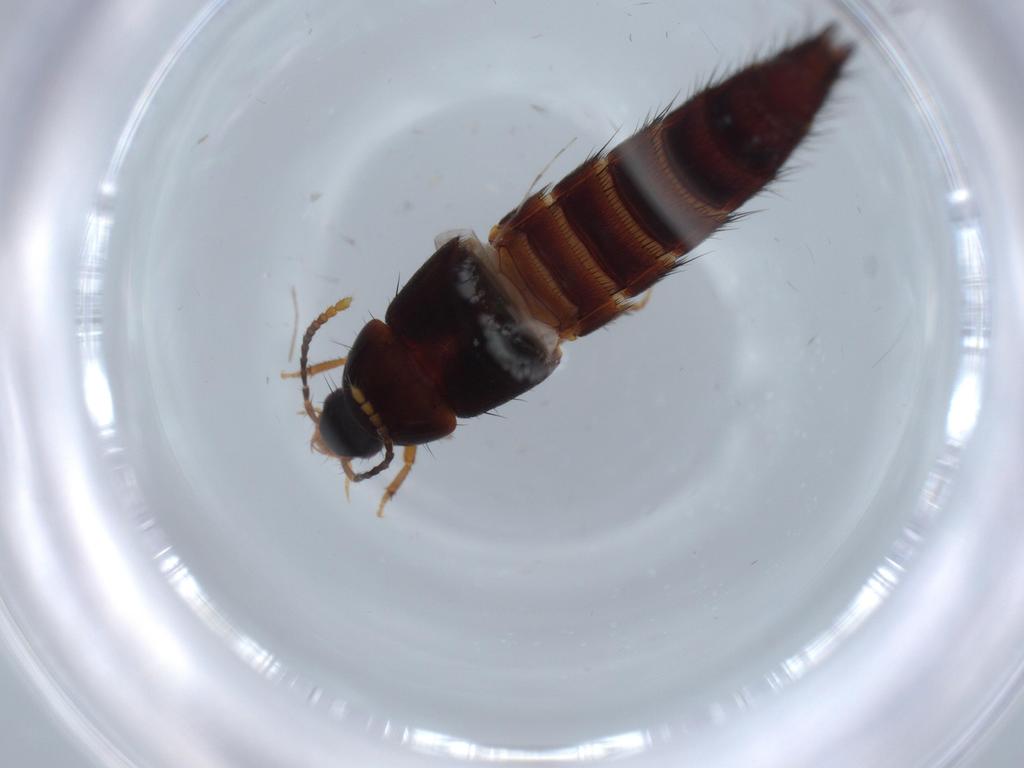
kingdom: Animalia
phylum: Arthropoda
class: Insecta
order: Coleoptera
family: Staphylinidae
